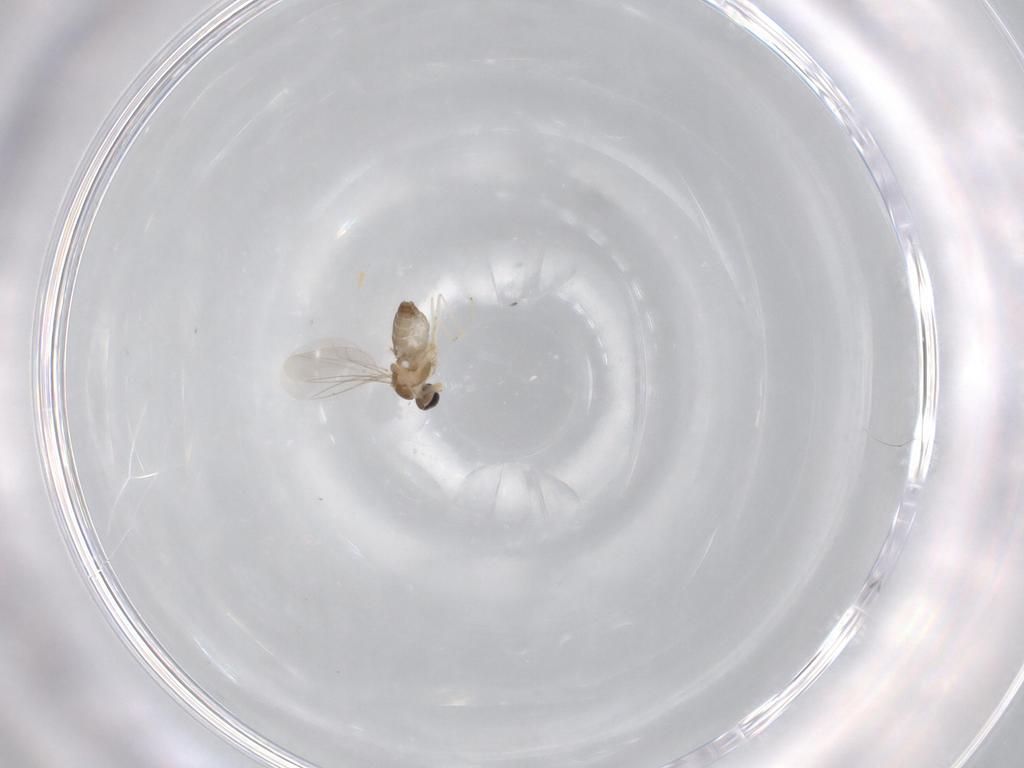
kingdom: Animalia
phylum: Arthropoda
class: Insecta
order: Diptera
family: Cecidomyiidae
